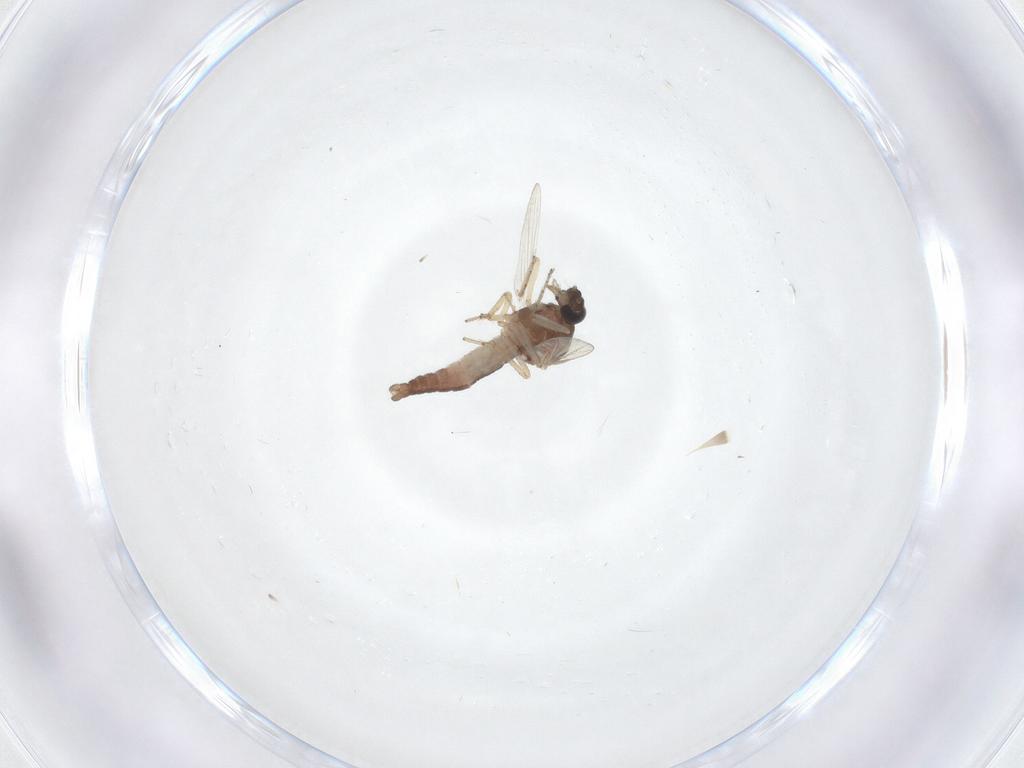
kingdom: Animalia
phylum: Arthropoda
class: Insecta
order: Diptera
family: Ceratopogonidae
